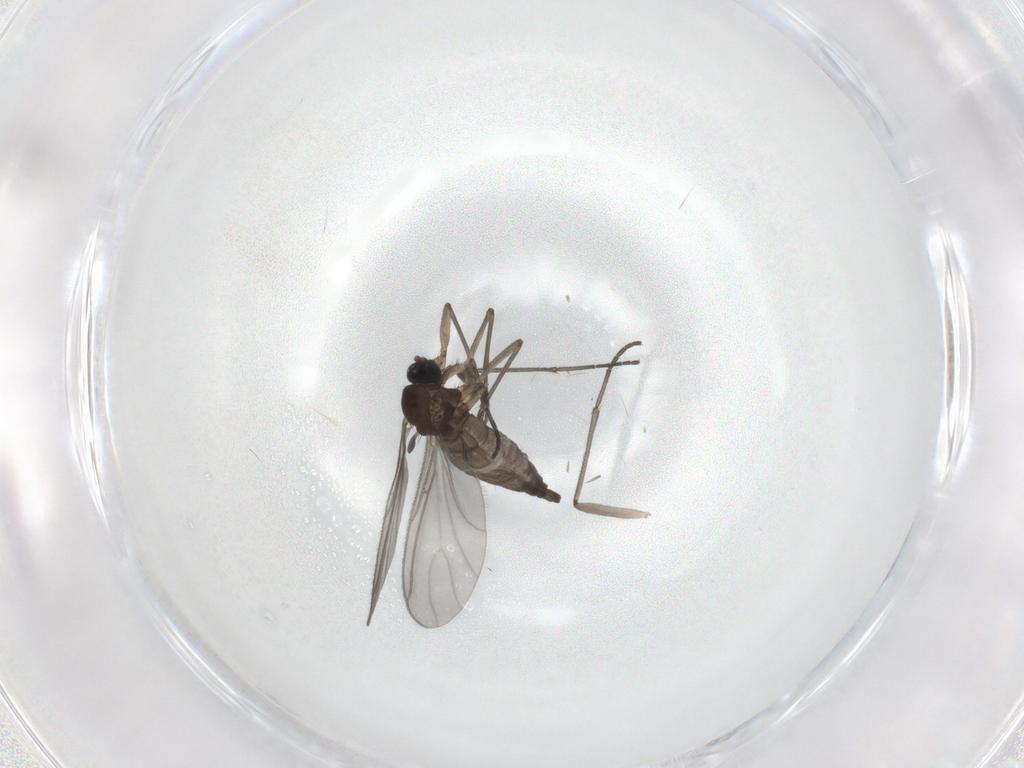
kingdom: Animalia
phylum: Arthropoda
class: Insecta
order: Diptera
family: Sciaridae
